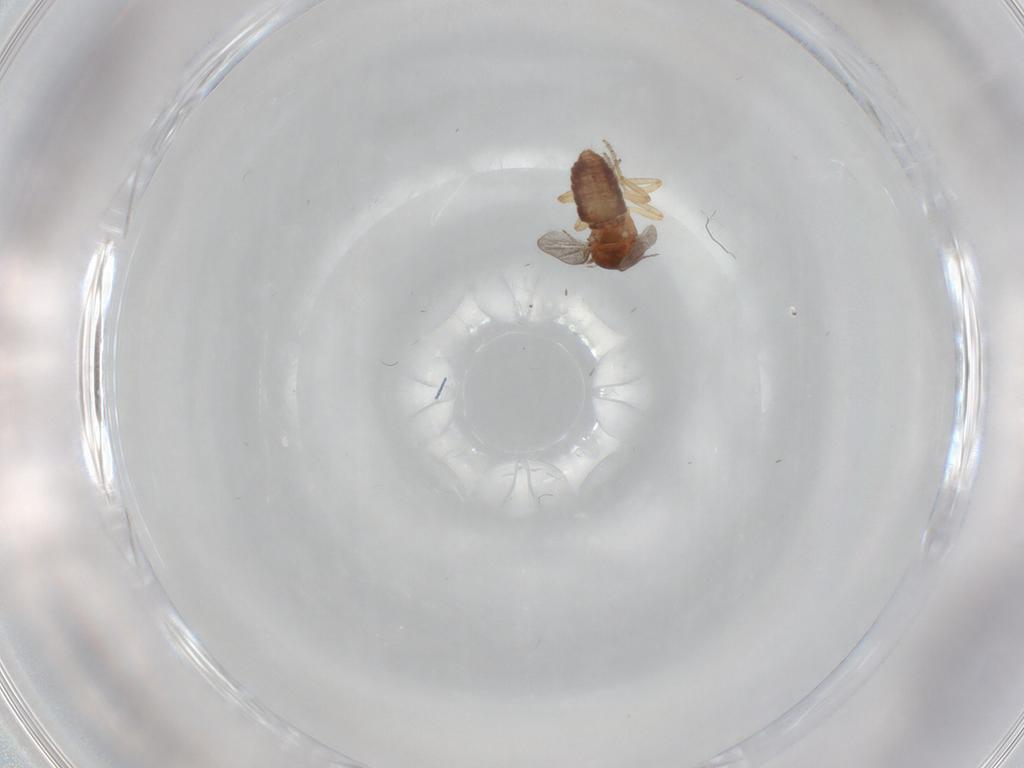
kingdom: Animalia
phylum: Arthropoda
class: Insecta
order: Diptera
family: Ceratopogonidae
